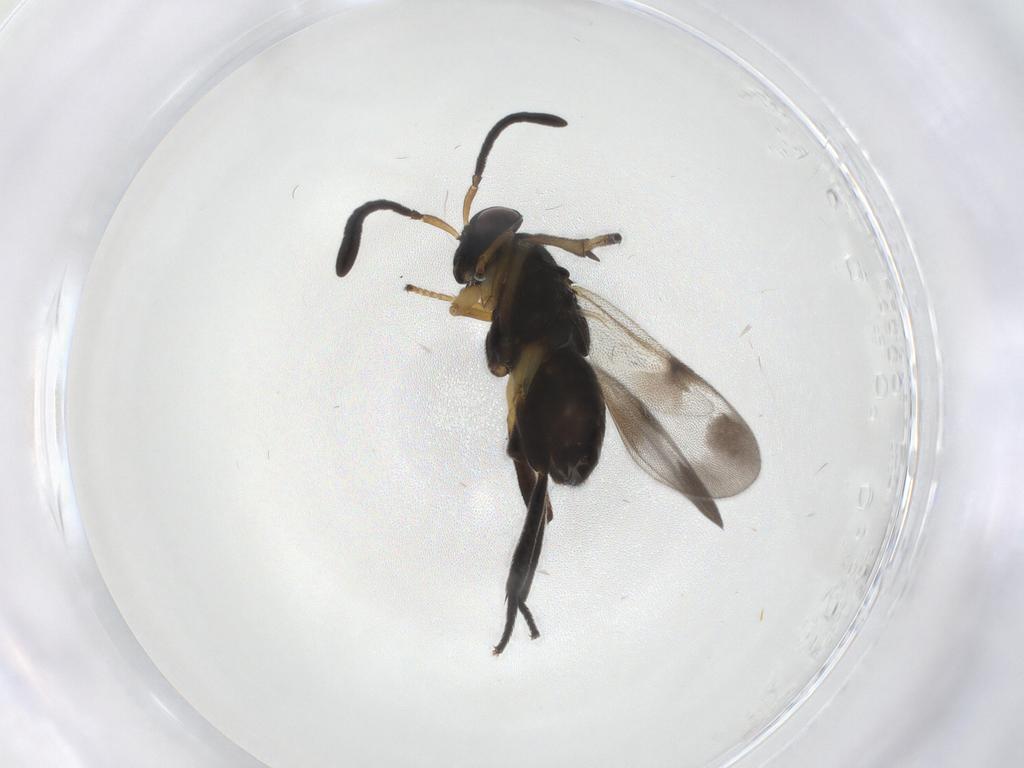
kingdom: Animalia
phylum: Arthropoda
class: Insecta
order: Hymenoptera
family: Eulophidae
